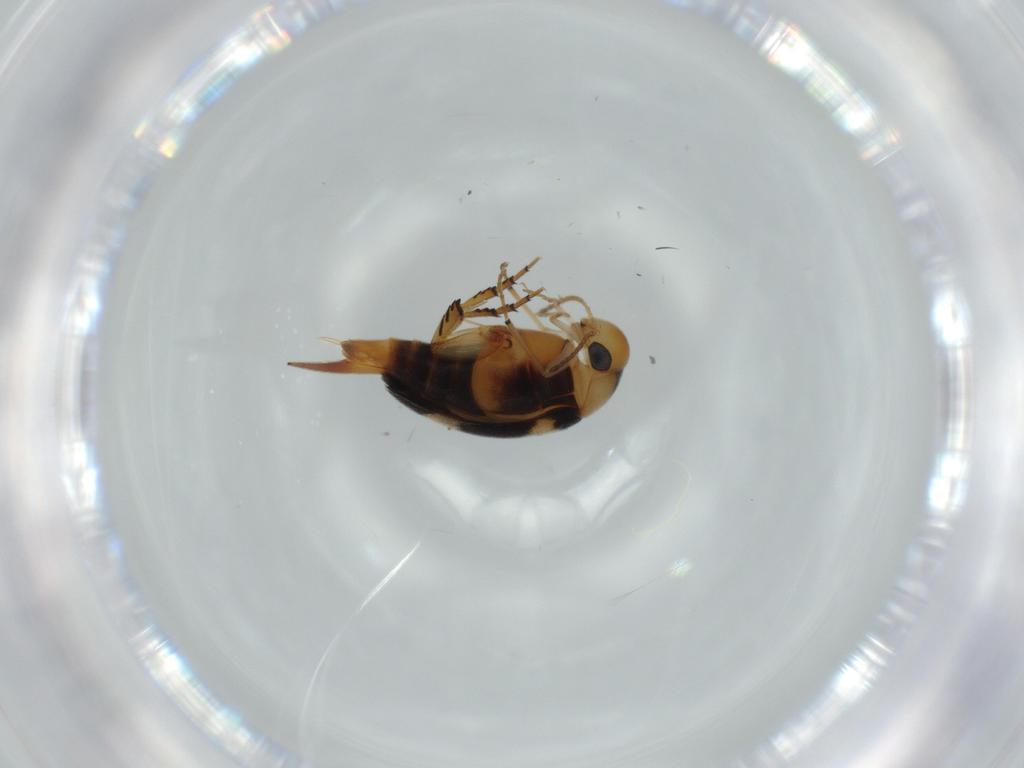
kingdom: Animalia
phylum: Arthropoda
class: Insecta
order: Coleoptera
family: Mordellidae
